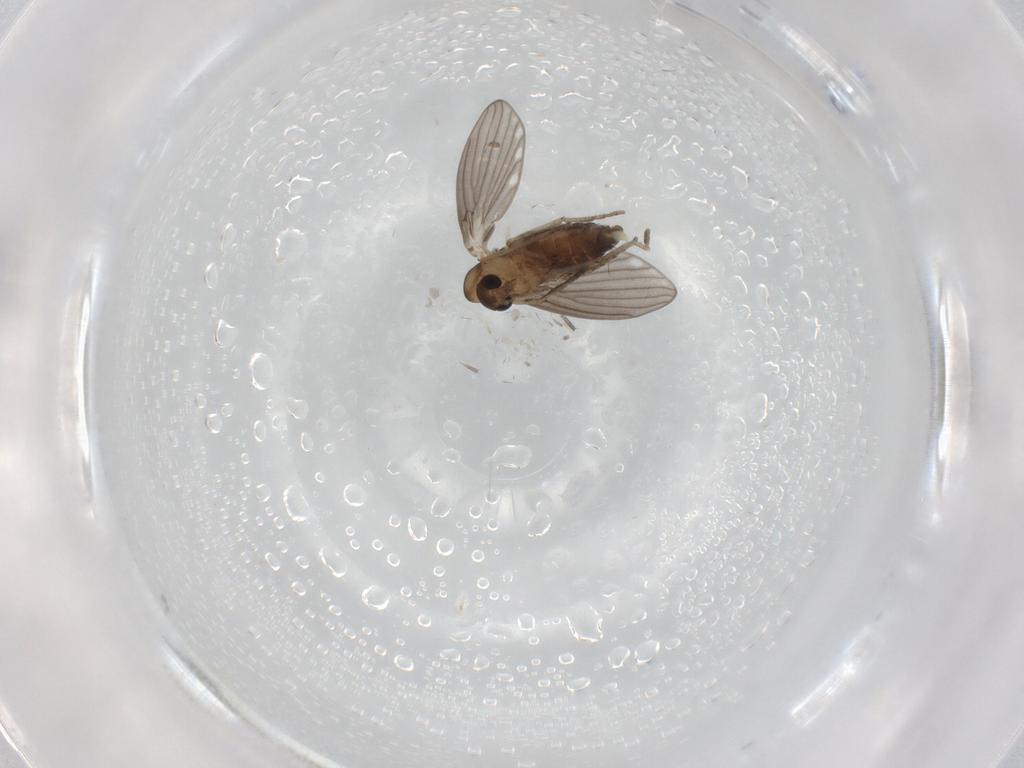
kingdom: Animalia
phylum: Arthropoda
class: Insecta
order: Diptera
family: Psychodidae
